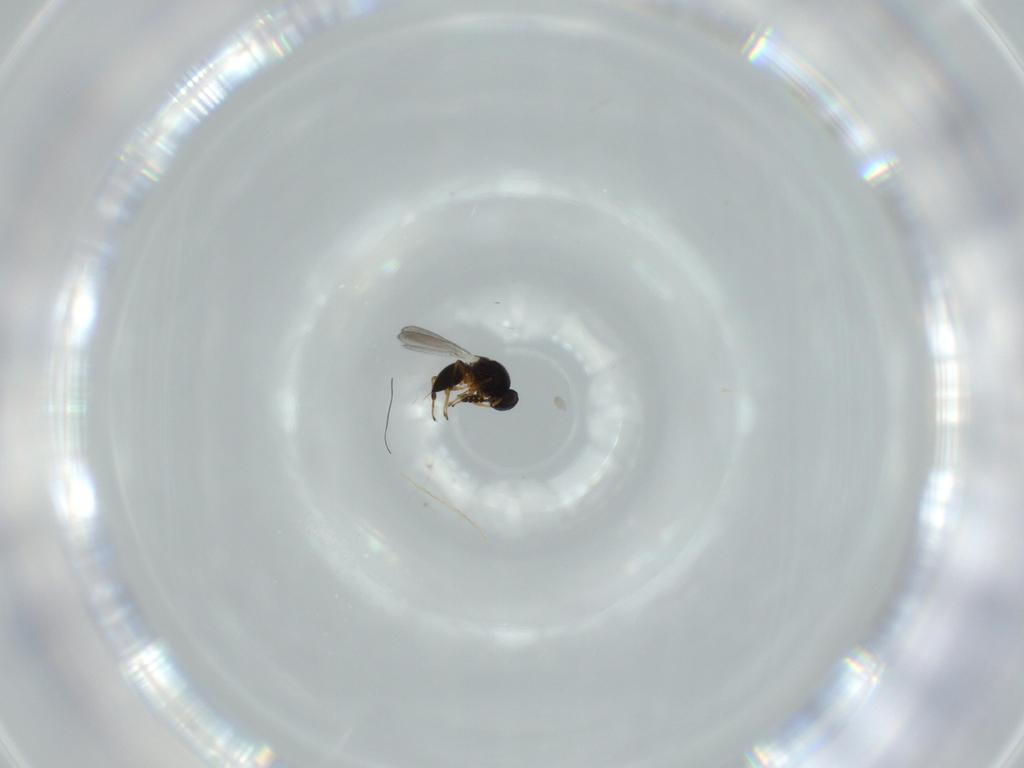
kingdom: Animalia
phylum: Arthropoda
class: Insecta
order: Hymenoptera
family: Platygastridae
